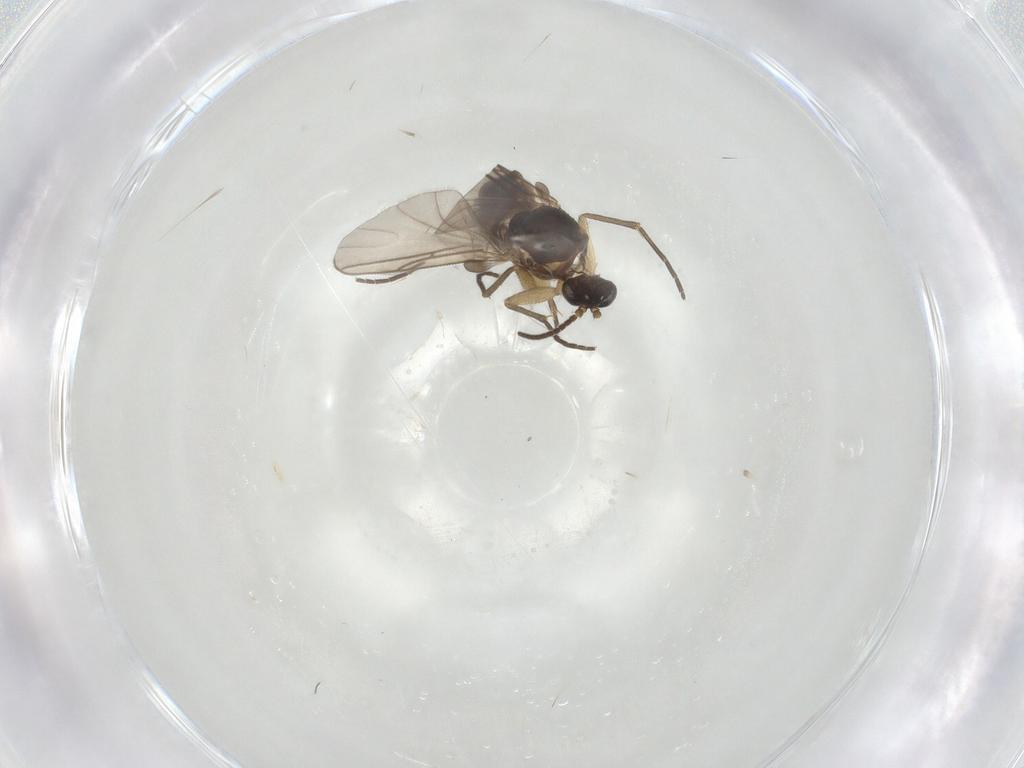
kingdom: Animalia
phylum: Arthropoda
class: Insecta
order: Diptera
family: Sciaridae
